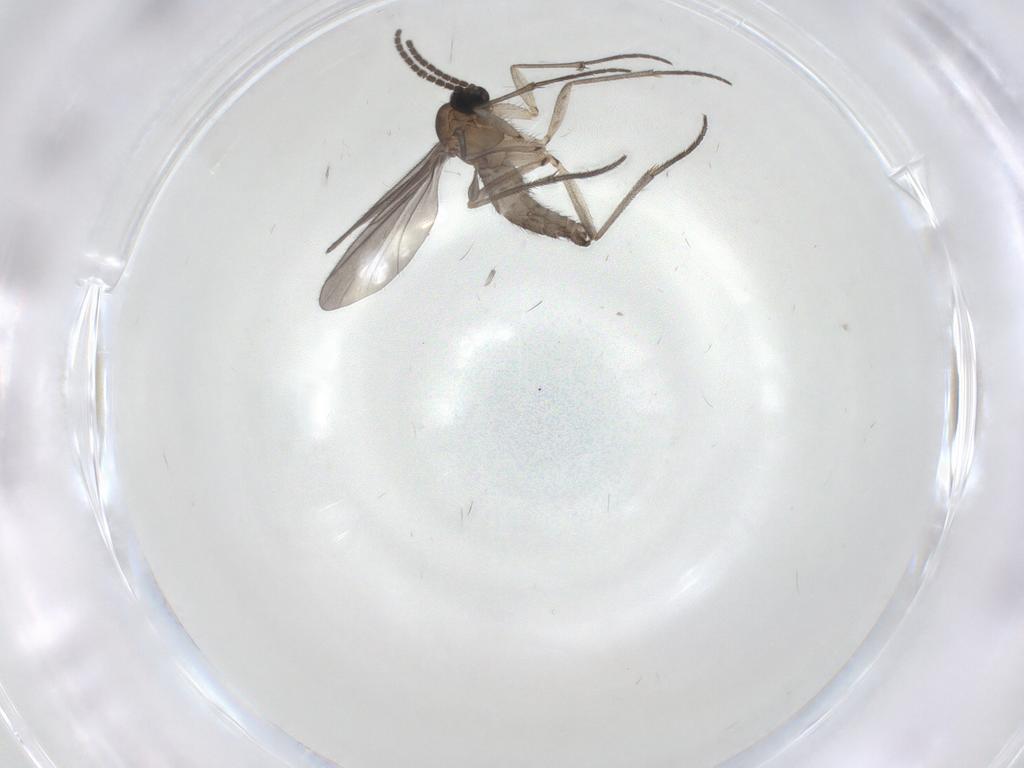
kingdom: Animalia
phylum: Arthropoda
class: Insecta
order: Diptera
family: Sciaridae
